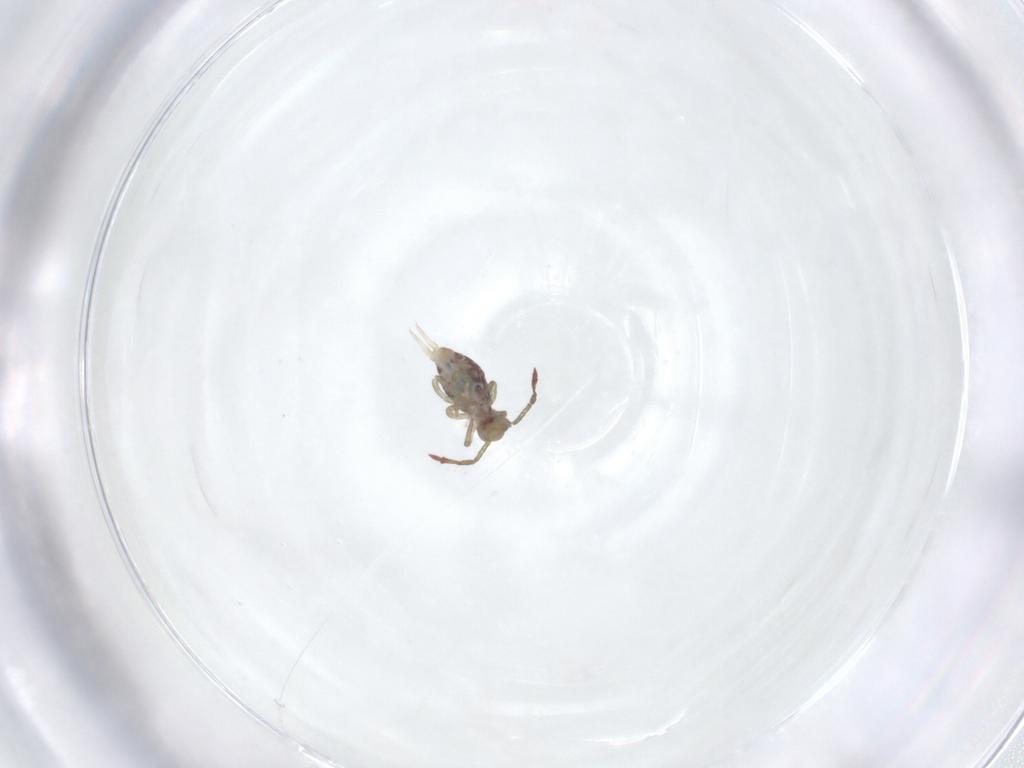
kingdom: Animalia
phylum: Arthropoda
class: Collembola
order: Symphypleona
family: Dicyrtomidae
